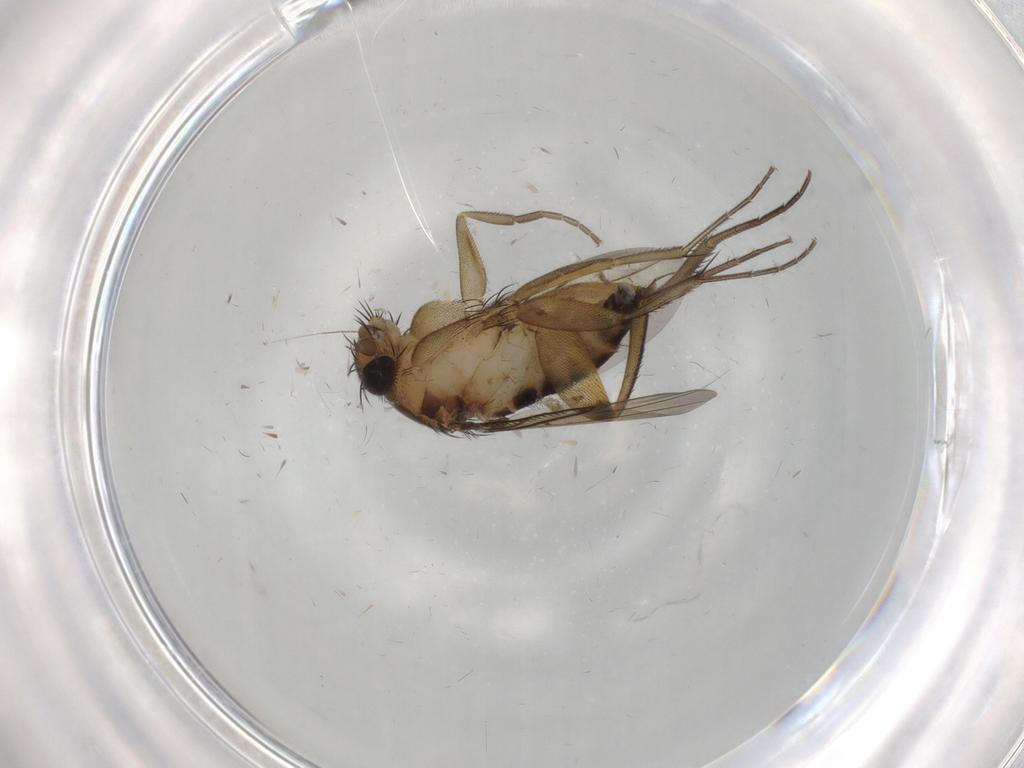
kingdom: Animalia
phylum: Arthropoda
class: Insecta
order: Diptera
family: Phoridae
